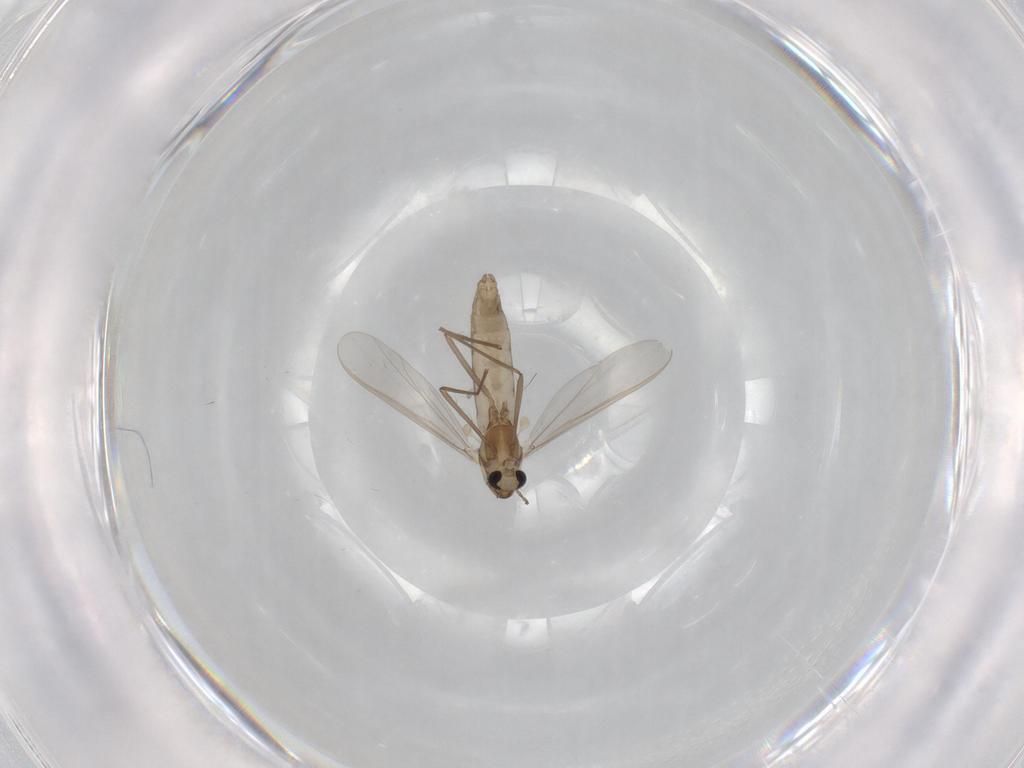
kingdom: Animalia
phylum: Arthropoda
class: Insecta
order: Diptera
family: Chironomidae
